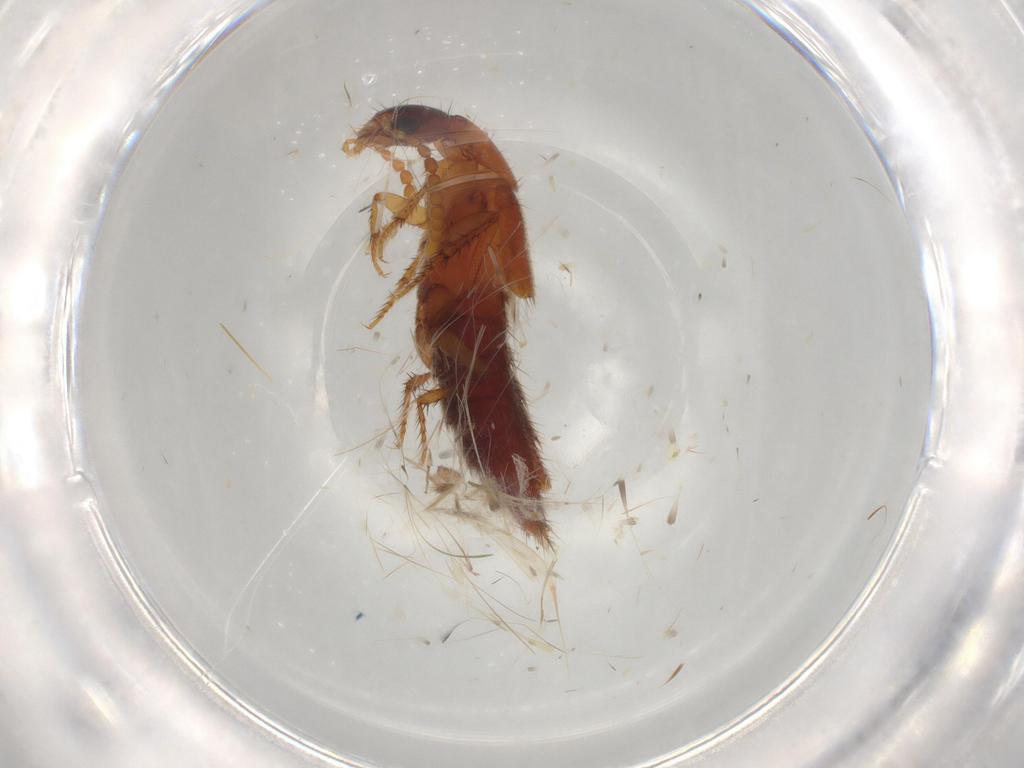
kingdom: Animalia
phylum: Arthropoda
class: Insecta
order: Coleoptera
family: Staphylinidae
